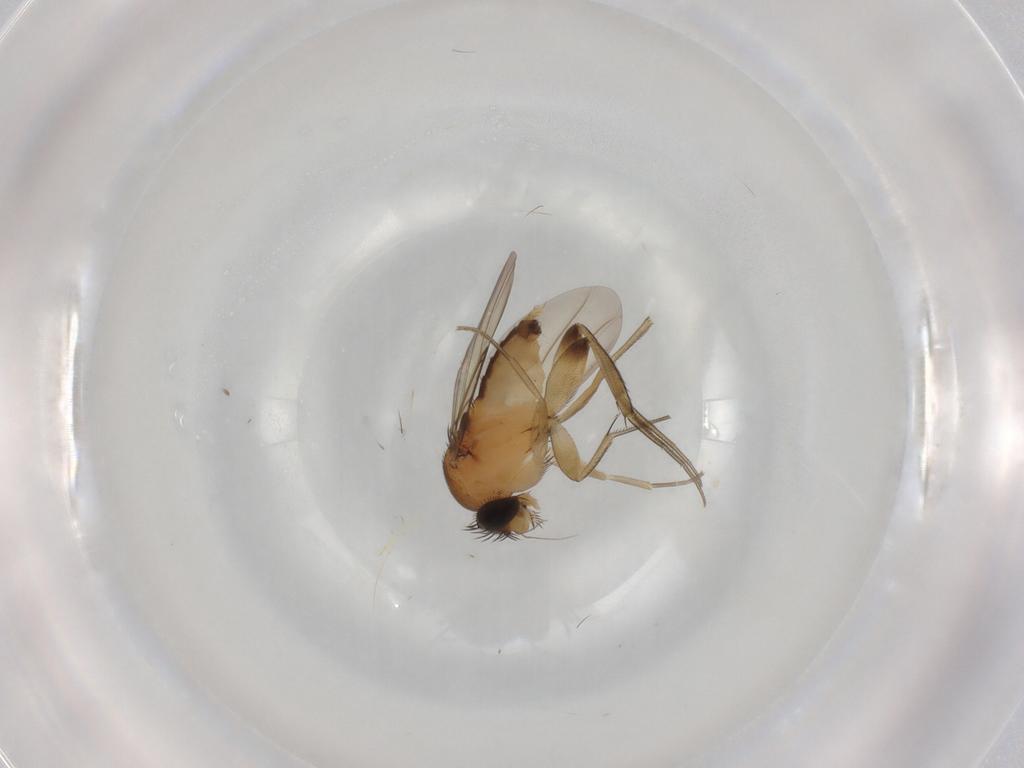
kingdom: Animalia
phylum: Arthropoda
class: Insecta
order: Diptera
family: Phoridae
